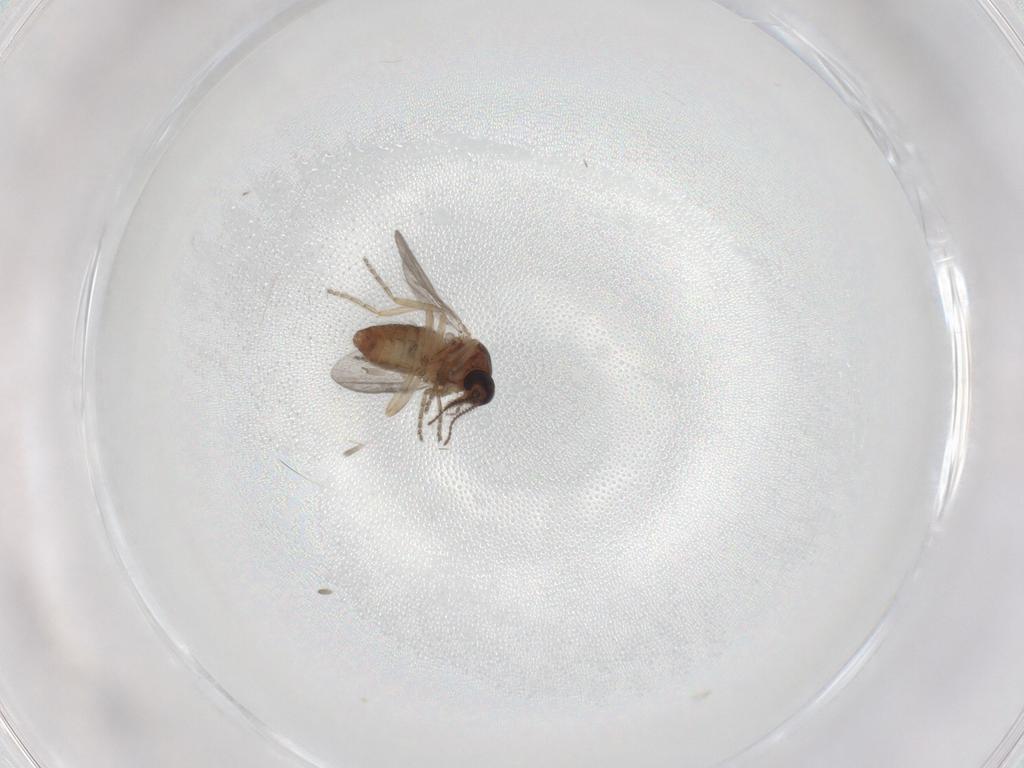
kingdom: Animalia
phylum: Arthropoda
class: Insecta
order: Diptera
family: Ceratopogonidae
